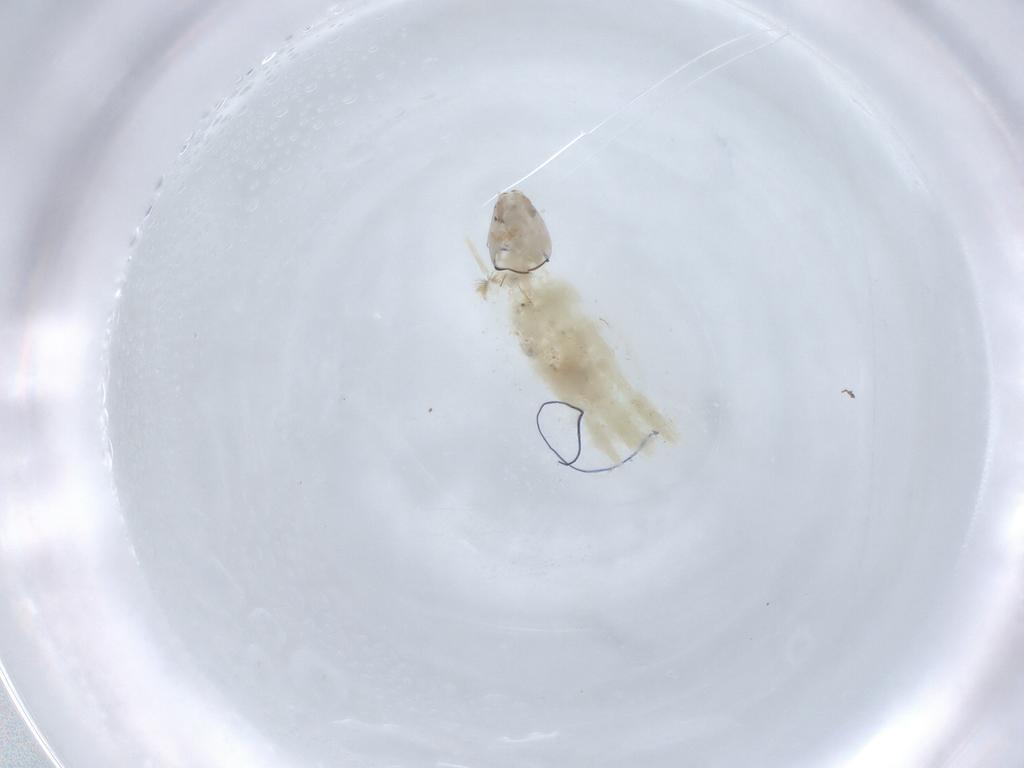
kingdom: Animalia
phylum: Arthropoda
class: Insecta
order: Diptera
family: Chironomidae
